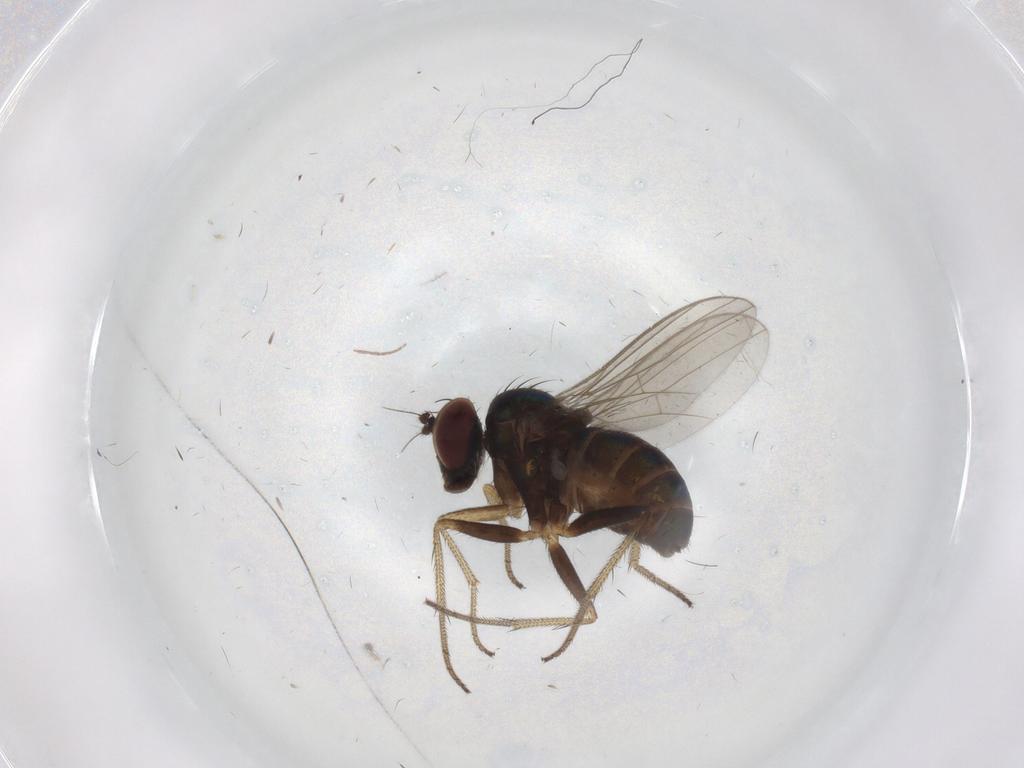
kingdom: Animalia
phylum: Arthropoda
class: Insecta
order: Diptera
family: Dolichopodidae
